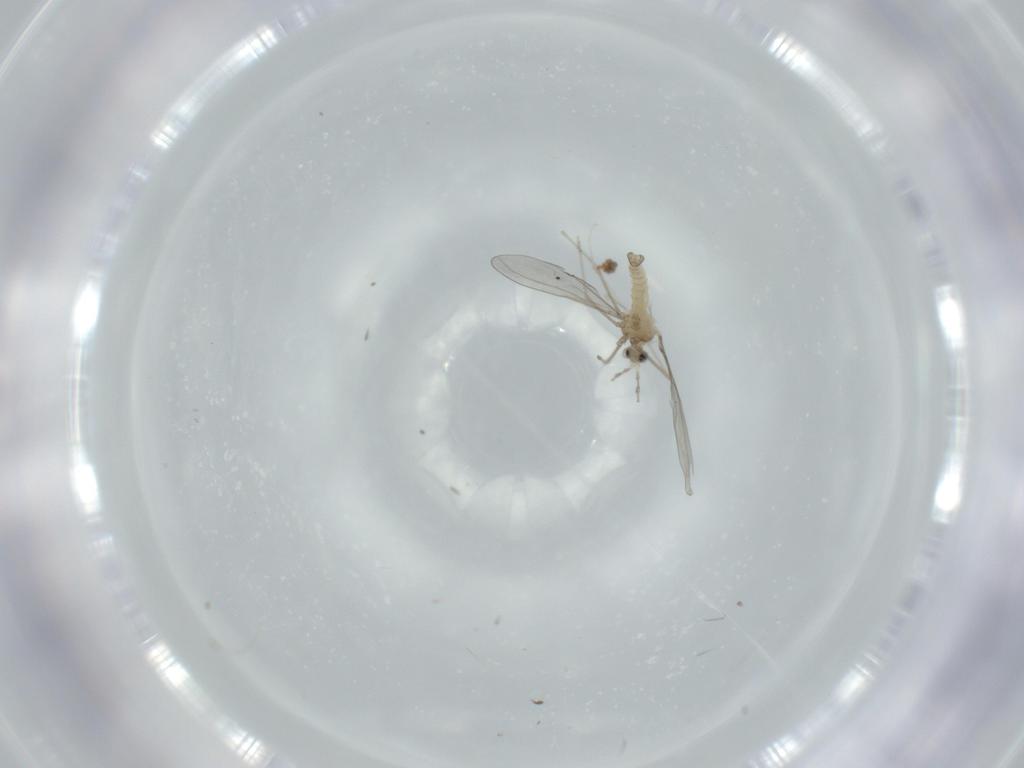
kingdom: Animalia
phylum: Arthropoda
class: Insecta
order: Diptera
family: Cecidomyiidae
